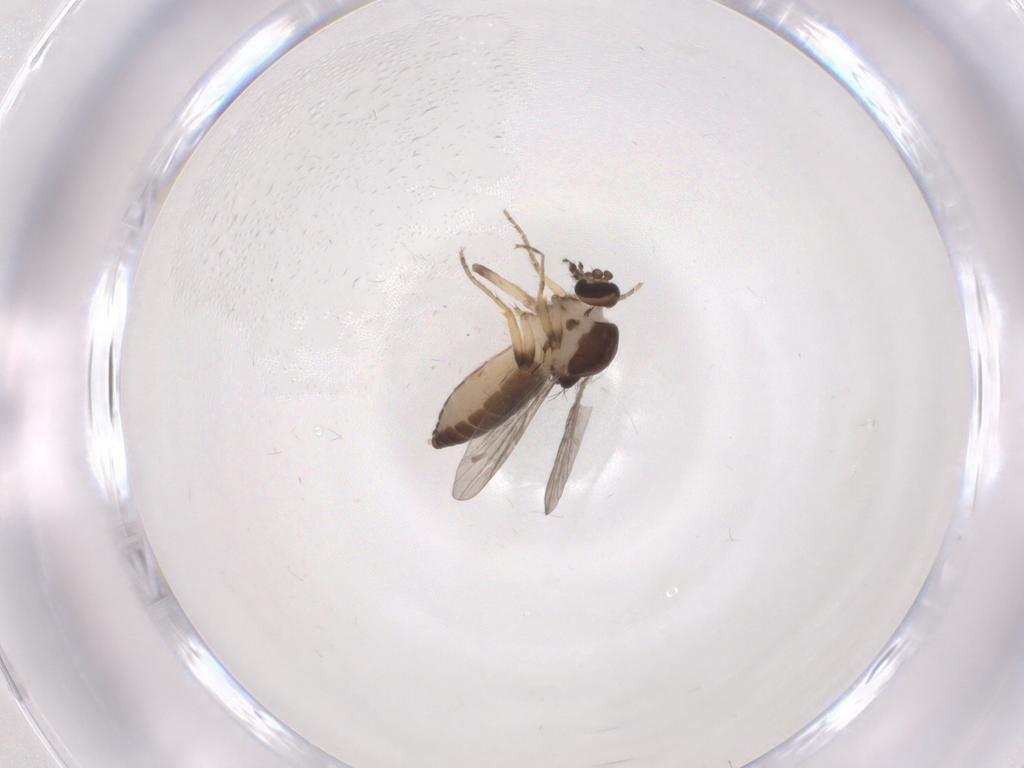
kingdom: Animalia
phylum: Arthropoda
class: Insecta
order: Diptera
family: Ceratopogonidae
